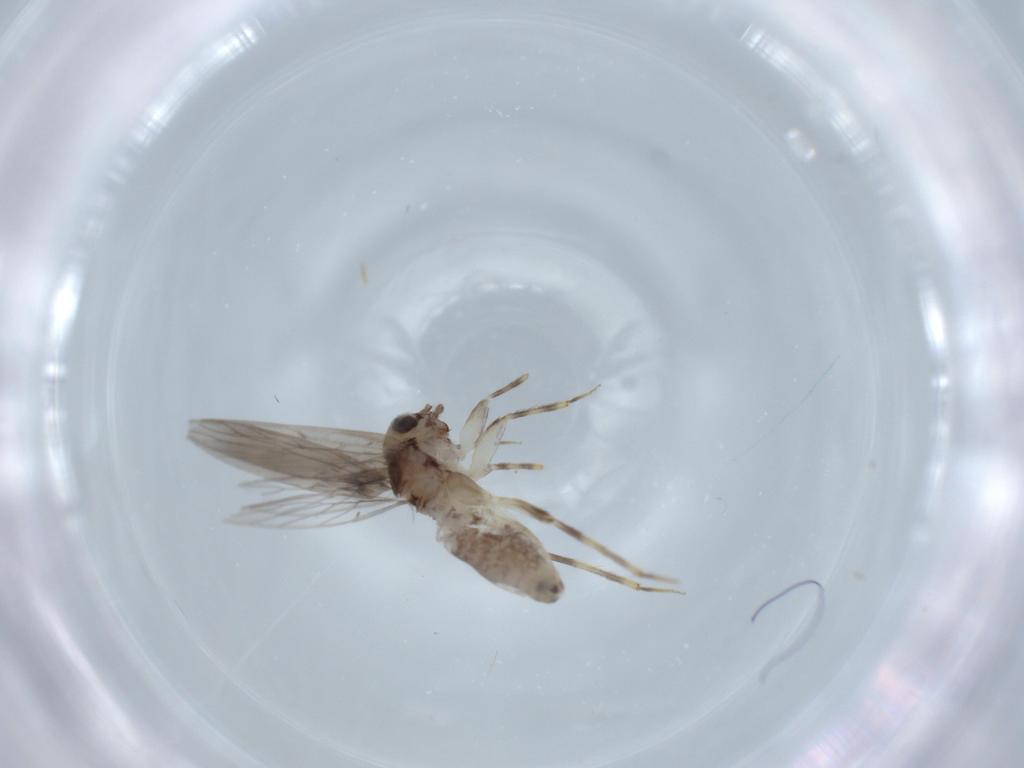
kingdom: Animalia
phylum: Arthropoda
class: Insecta
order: Psocodea
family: Lepidopsocidae
